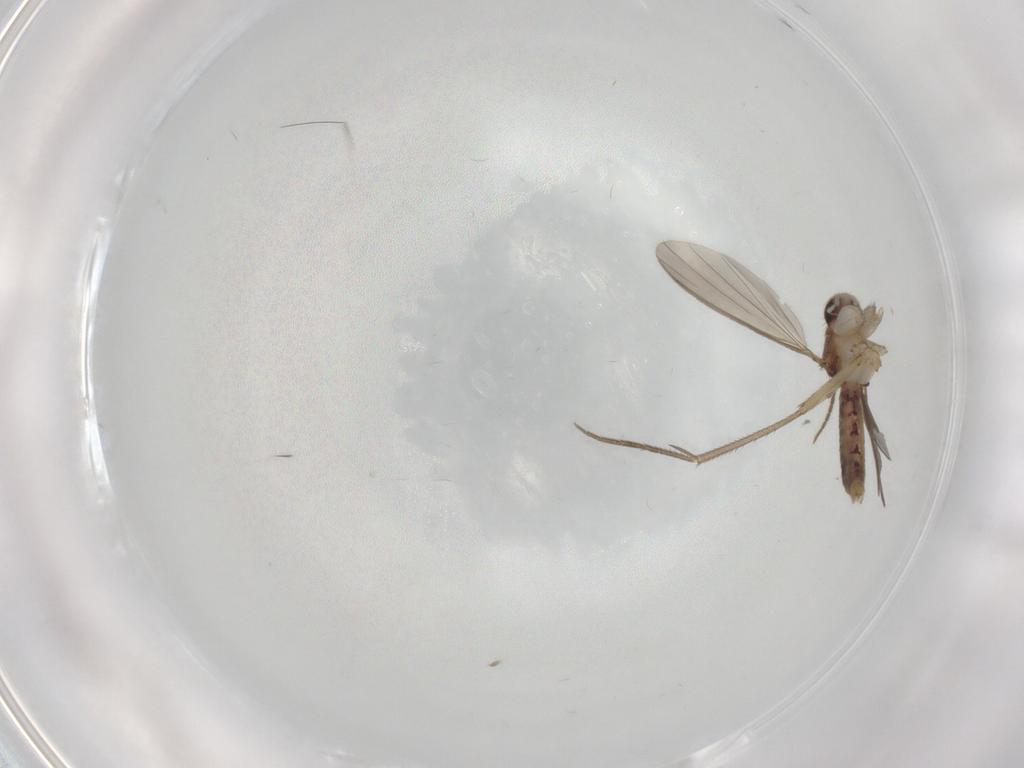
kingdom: Animalia
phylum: Arthropoda
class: Insecta
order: Diptera
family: Mycetophilidae
